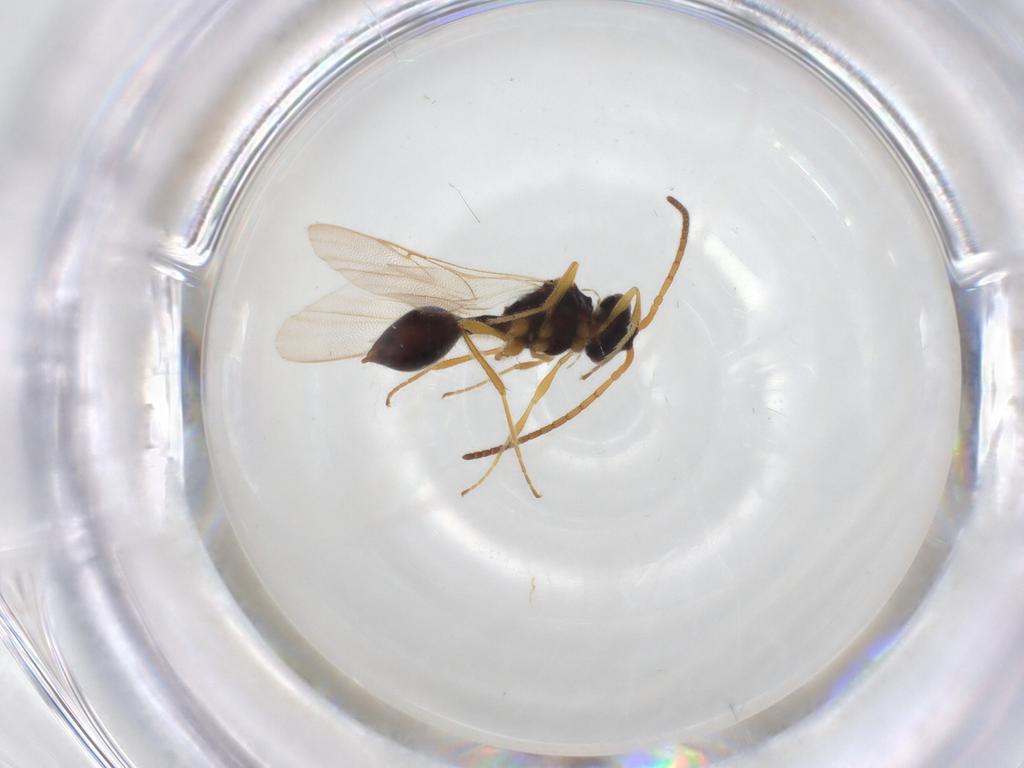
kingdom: Animalia
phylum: Arthropoda
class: Insecta
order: Hymenoptera
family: Diapriidae
